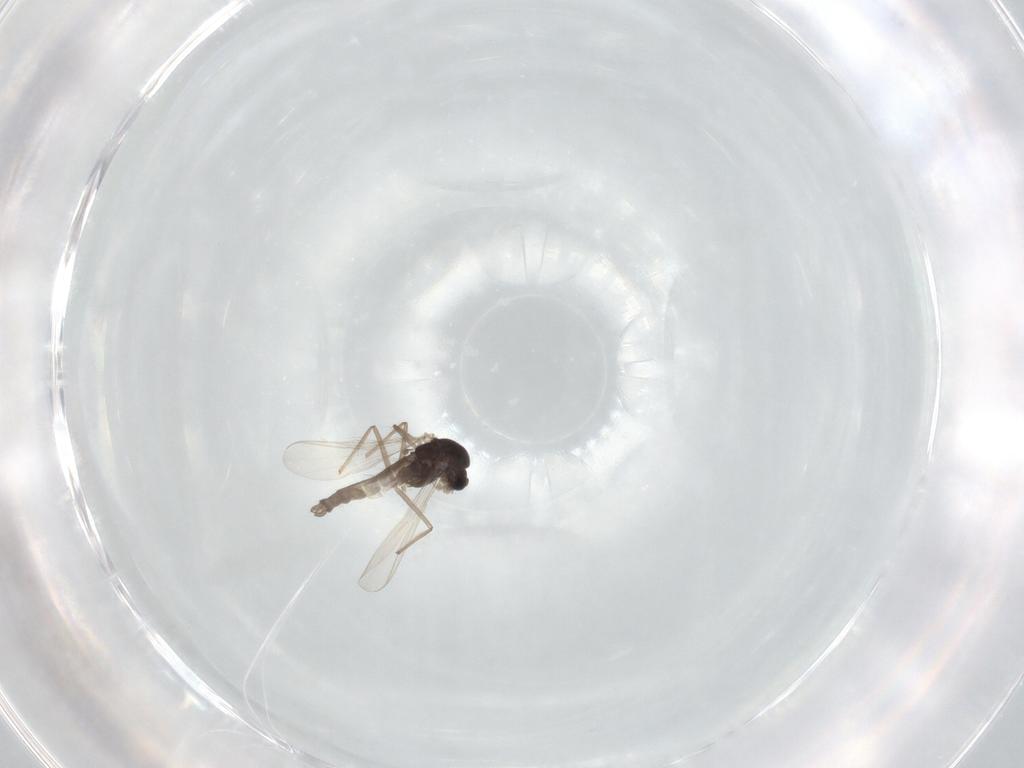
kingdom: Animalia
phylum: Arthropoda
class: Insecta
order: Diptera
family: Chironomidae
